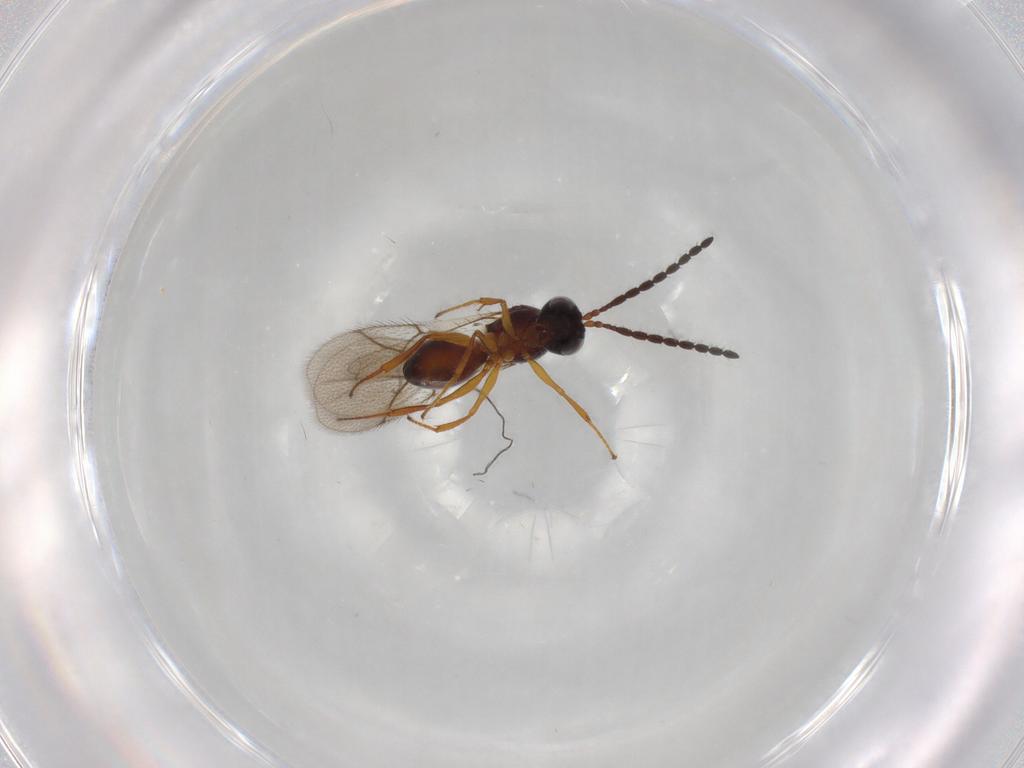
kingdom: Animalia
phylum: Arthropoda
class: Insecta
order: Hymenoptera
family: Figitidae
